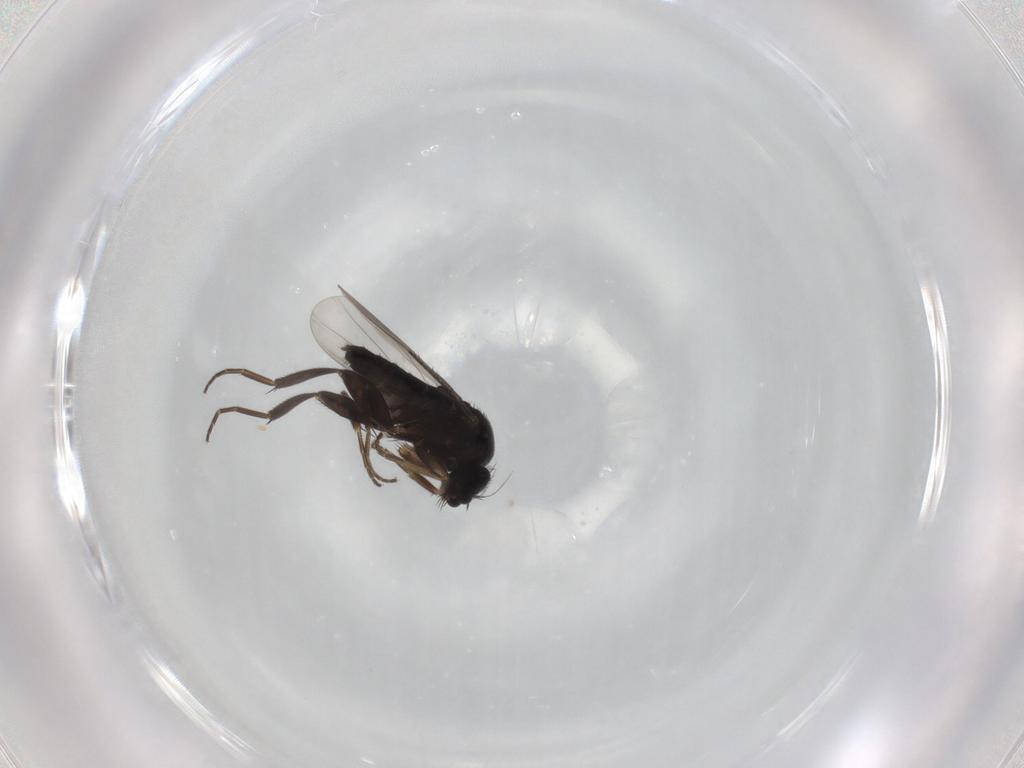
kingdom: Animalia
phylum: Arthropoda
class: Insecta
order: Diptera
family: Phoridae
